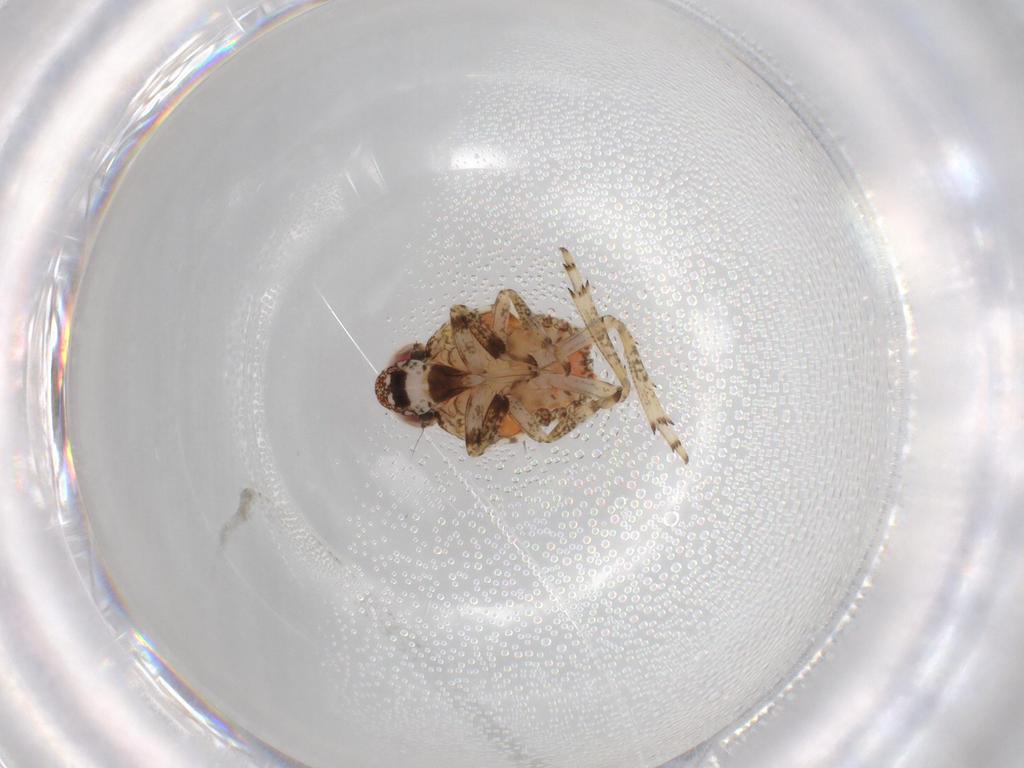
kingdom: Animalia
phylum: Arthropoda
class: Insecta
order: Hemiptera
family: Issidae
